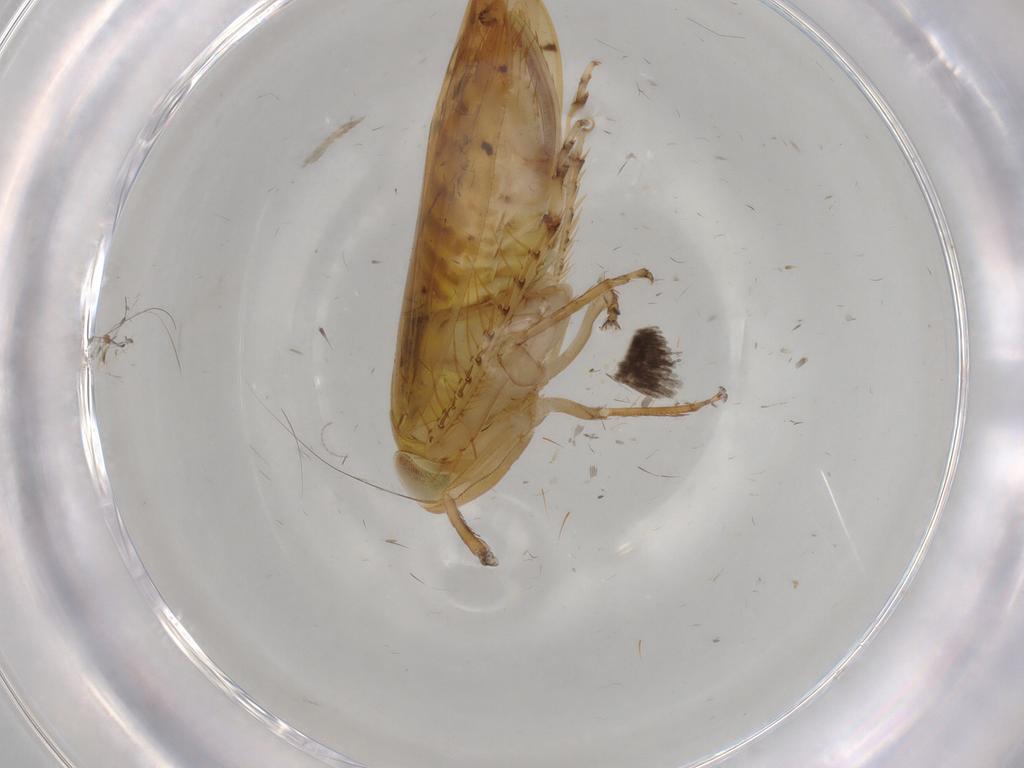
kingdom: Animalia
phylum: Arthropoda
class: Insecta
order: Hemiptera
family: Cicadellidae
